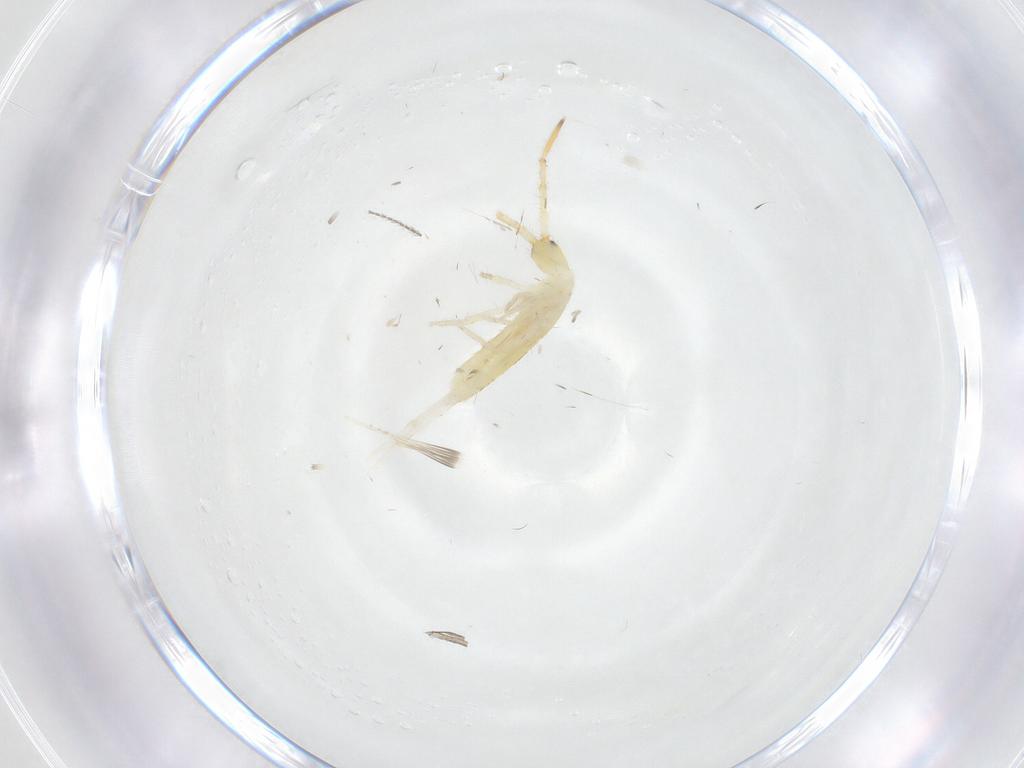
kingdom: Animalia
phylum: Arthropoda
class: Collembola
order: Entomobryomorpha
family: Entomobryidae
